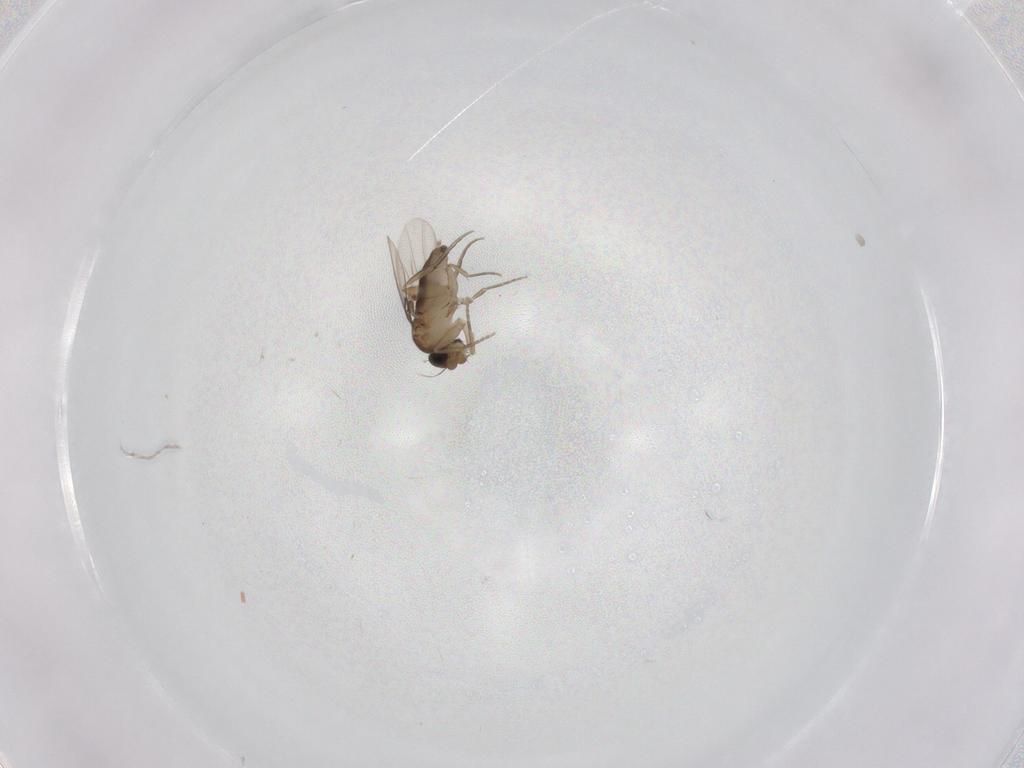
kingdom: Animalia
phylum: Arthropoda
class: Insecta
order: Diptera
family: Phoridae
